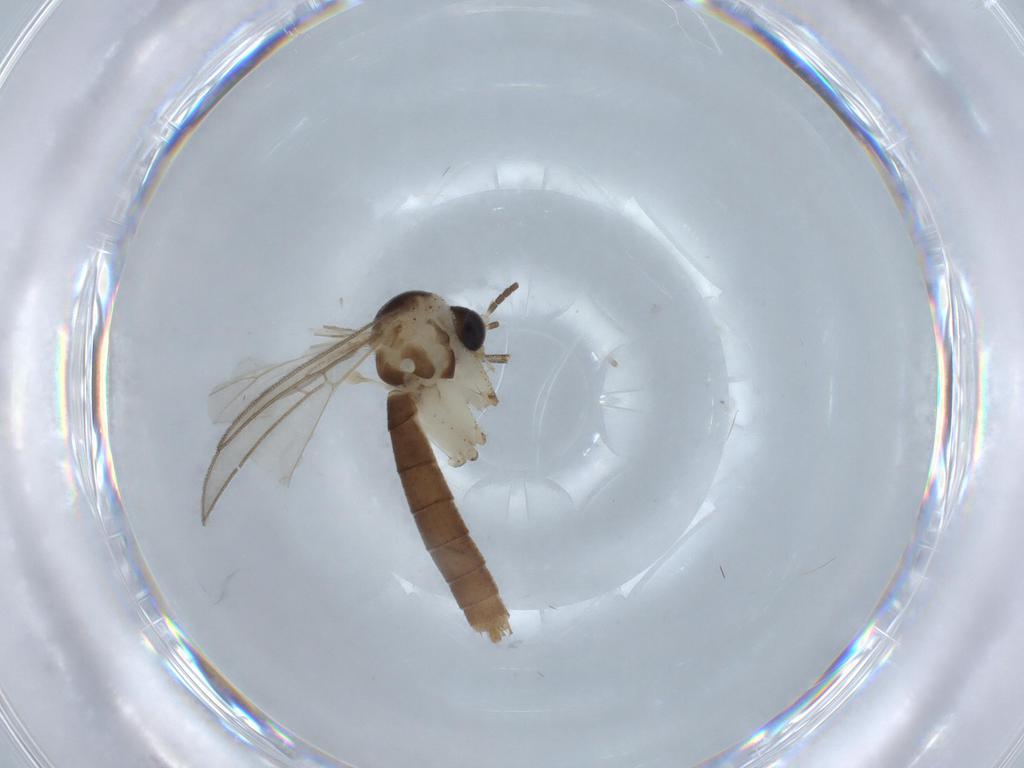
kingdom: Animalia
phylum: Arthropoda
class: Insecta
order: Diptera
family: Mycetophilidae
